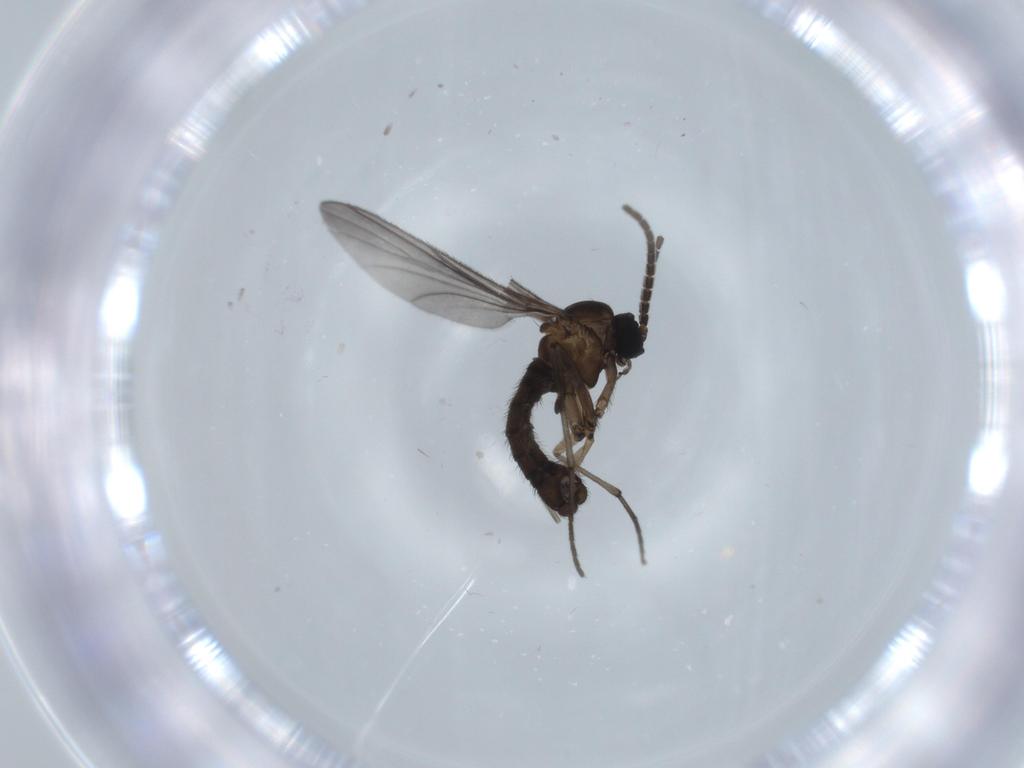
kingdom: Animalia
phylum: Arthropoda
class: Insecta
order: Diptera
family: Sciaridae
